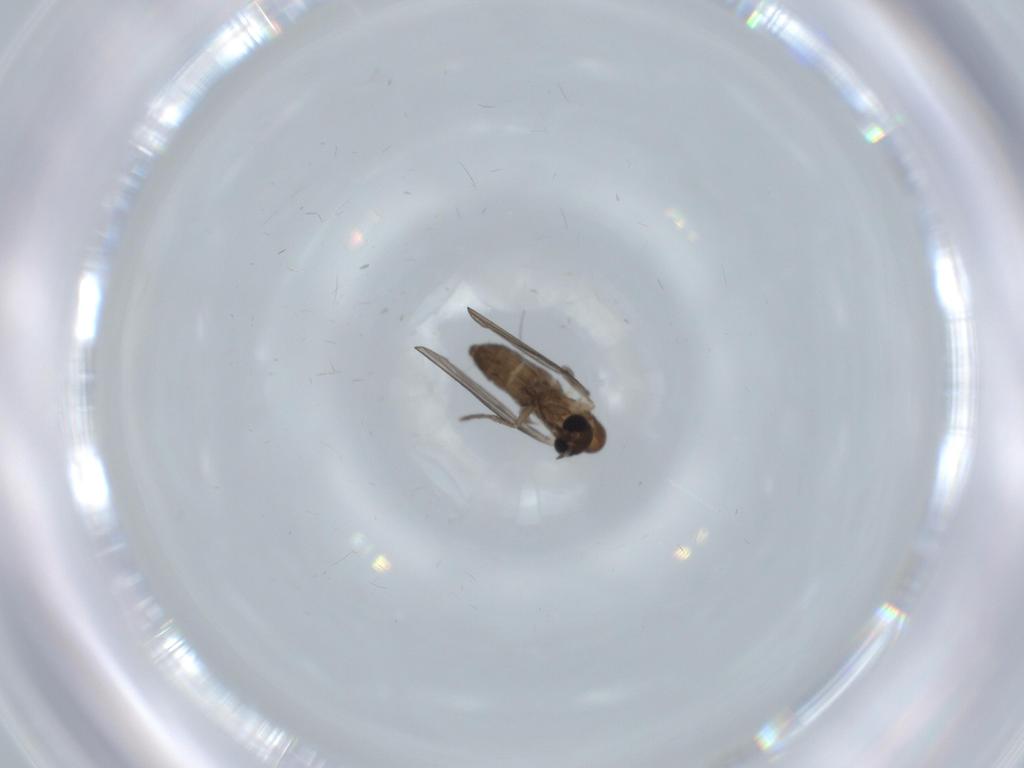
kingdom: Animalia
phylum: Arthropoda
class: Insecta
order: Diptera
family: Psychodidae
